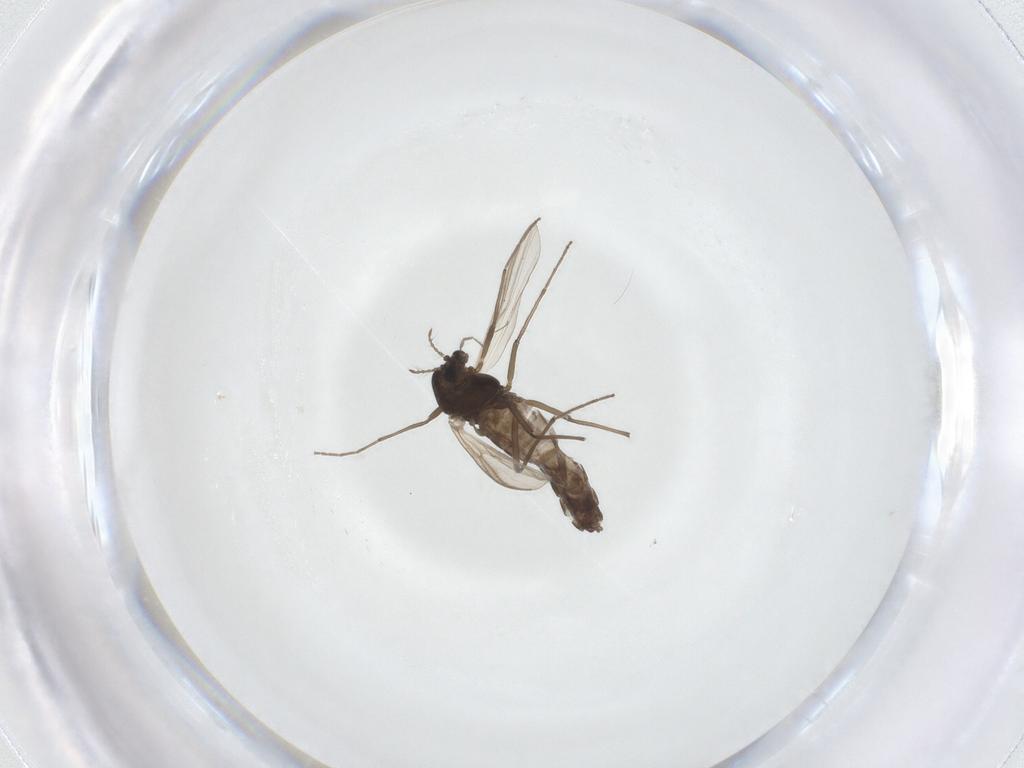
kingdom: Animalia
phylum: Arthropoda
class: Insecta
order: Diptera
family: Chironomidae
